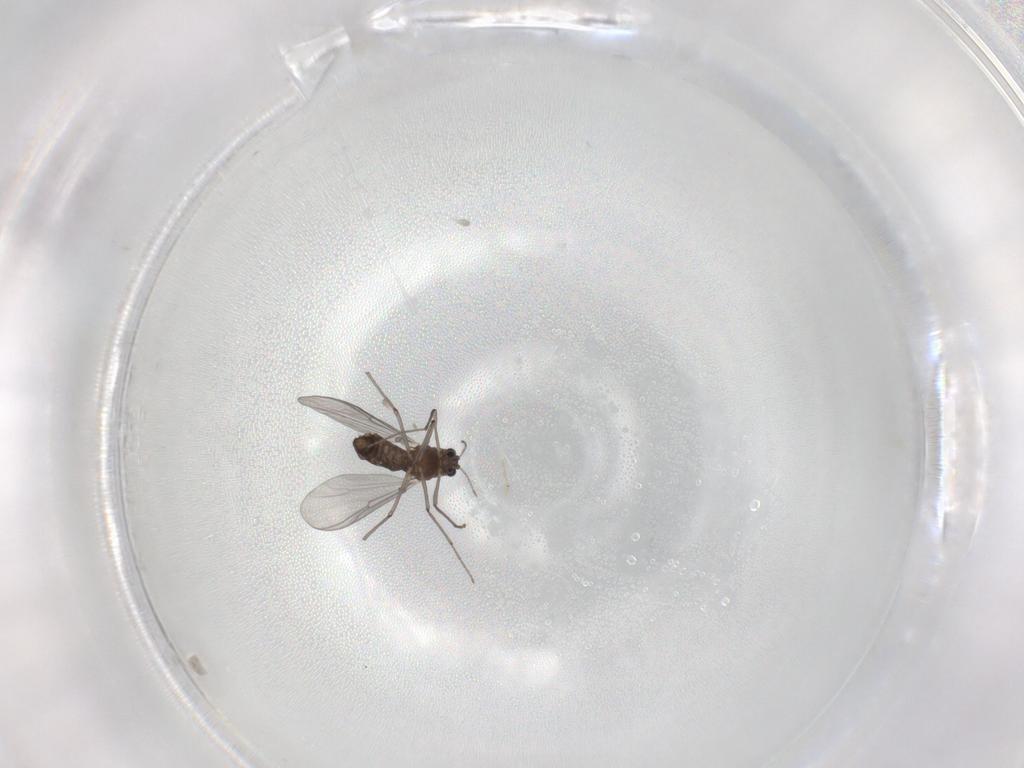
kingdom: Animalia
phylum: Arthropoda
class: Insecta
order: Diptera
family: Chironomidae
